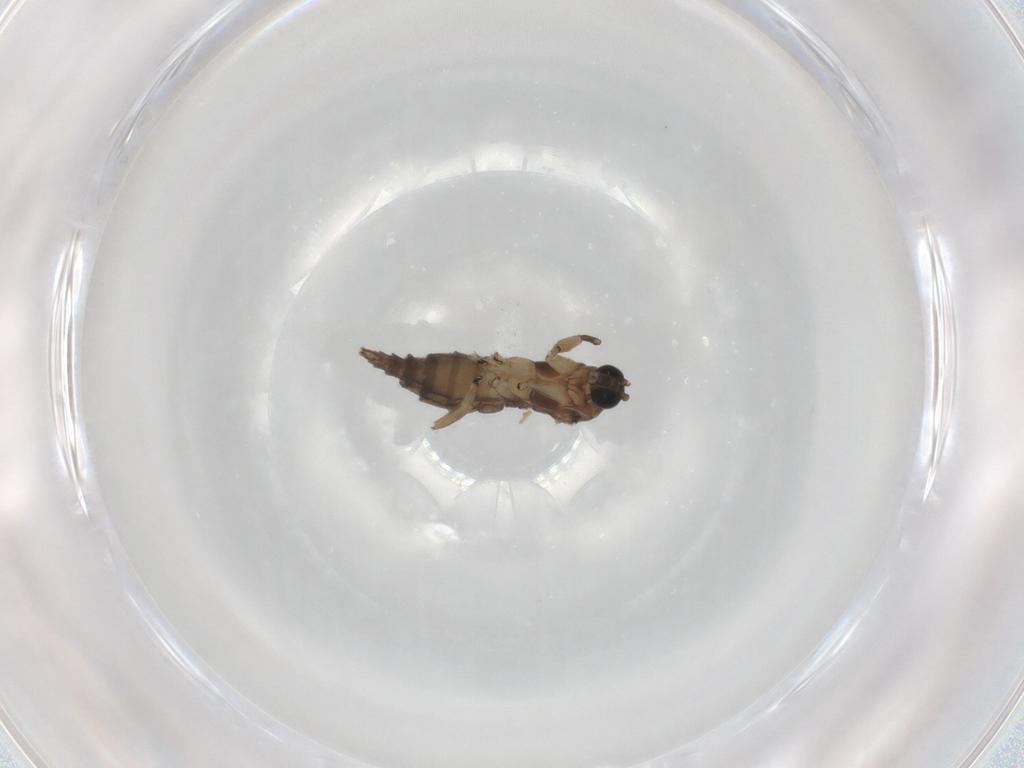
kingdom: Animalia
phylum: Arthropoda
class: Insecta
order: Diptera
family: Sciaridae
